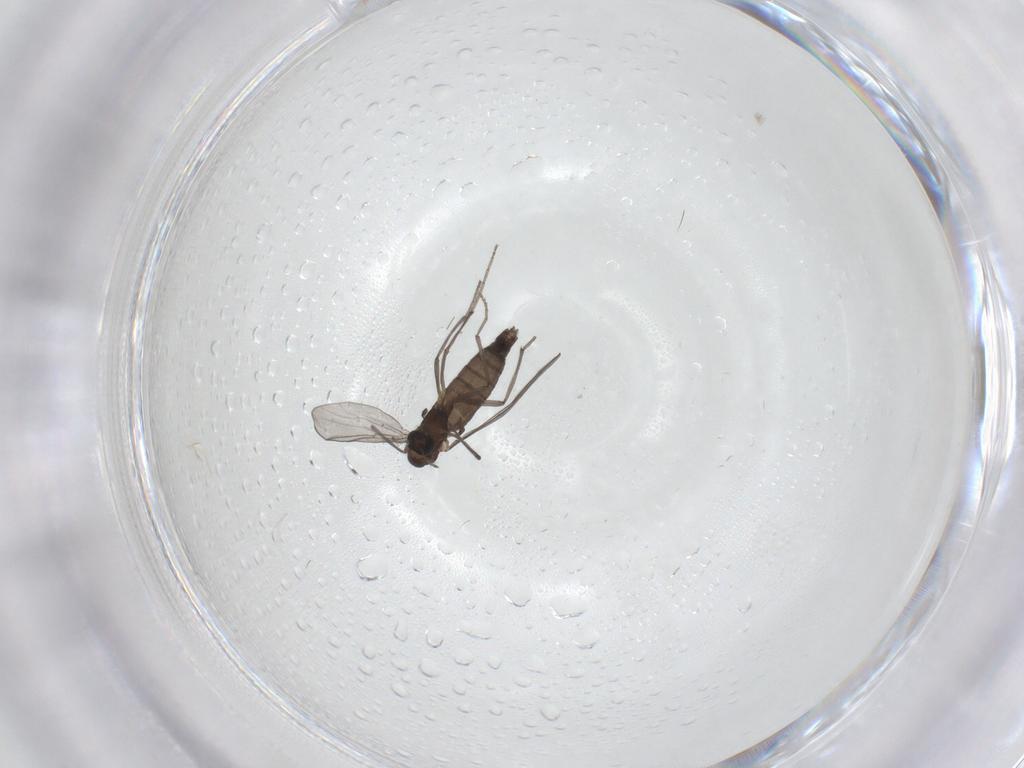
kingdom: Animalia
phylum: Arthropoda
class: Insecta
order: Diptera
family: Chironomidae
